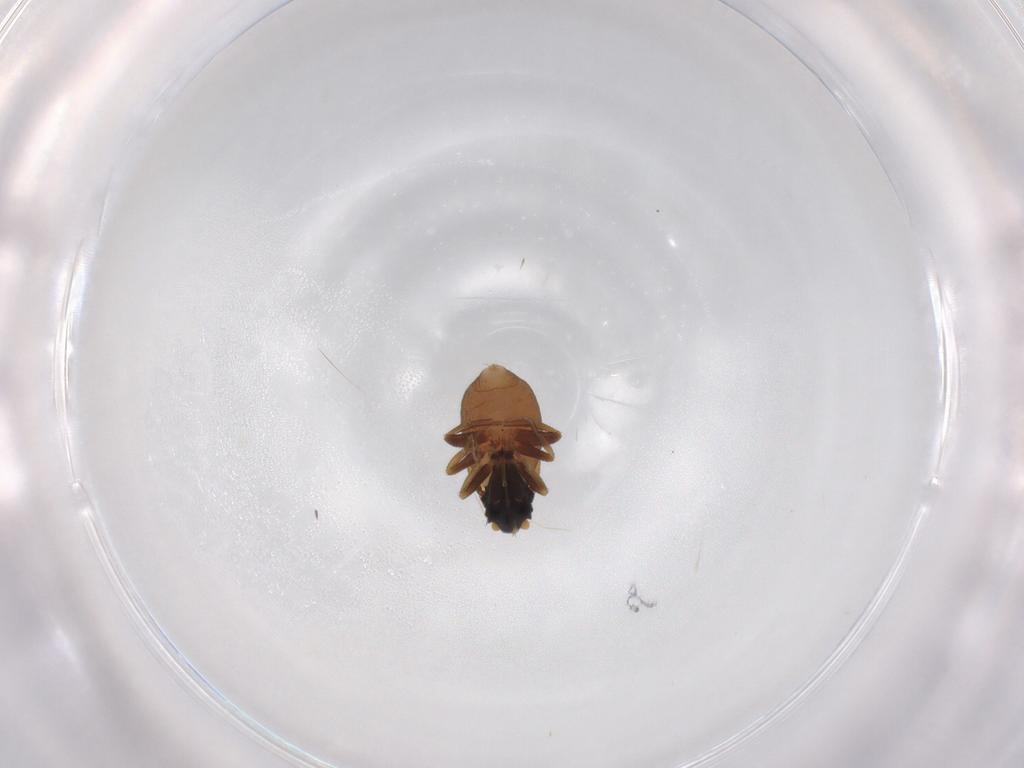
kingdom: Animalia
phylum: Arthropoda
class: Insecta
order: Diptera
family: Phoridae
